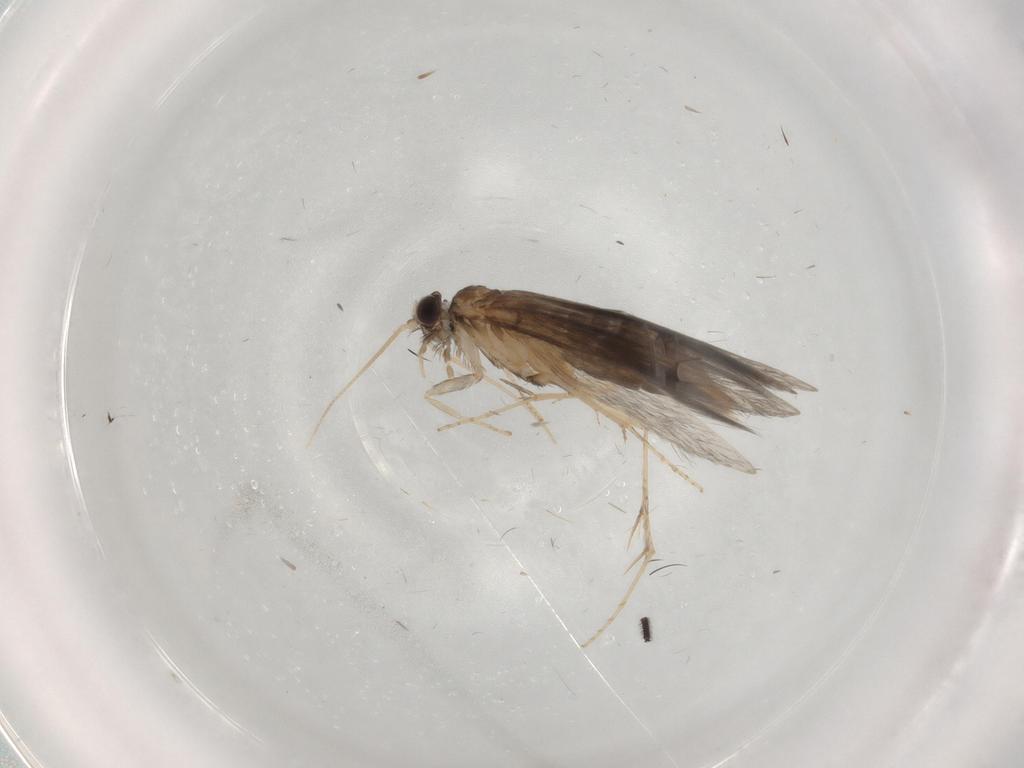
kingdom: Animalia
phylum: Arthropoda
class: Insecta
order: Trichoptera
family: Hydroptilidae
